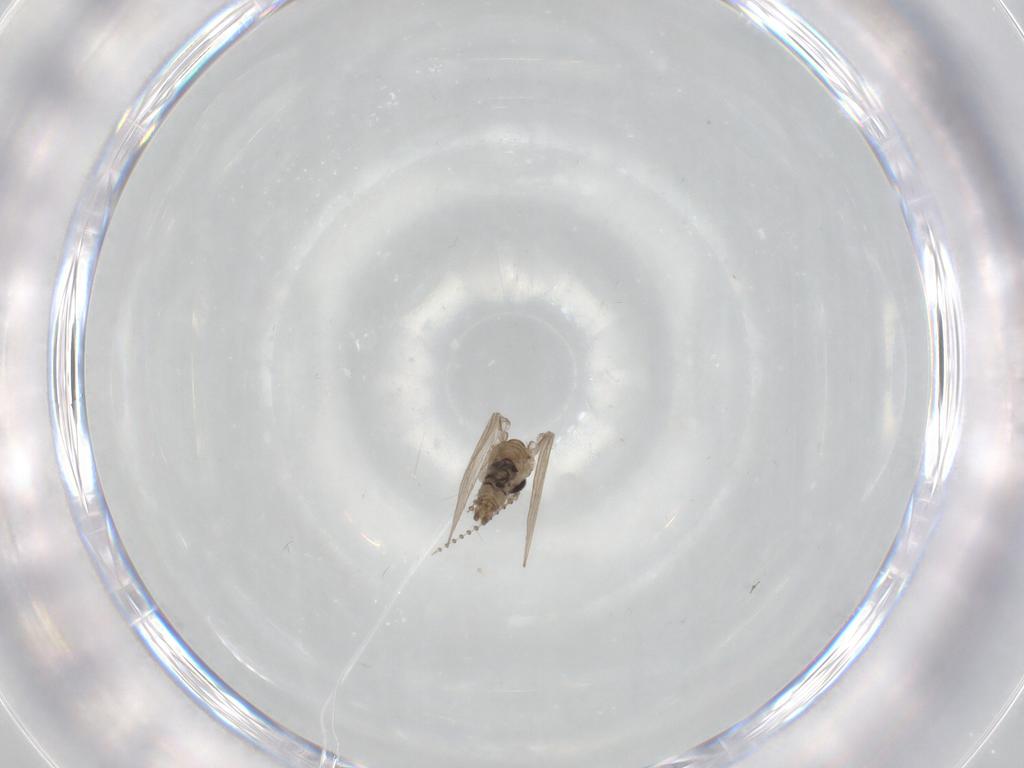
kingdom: Animalia
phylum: Arthropoda
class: Insecta
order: Diptera
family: Psychodidae
